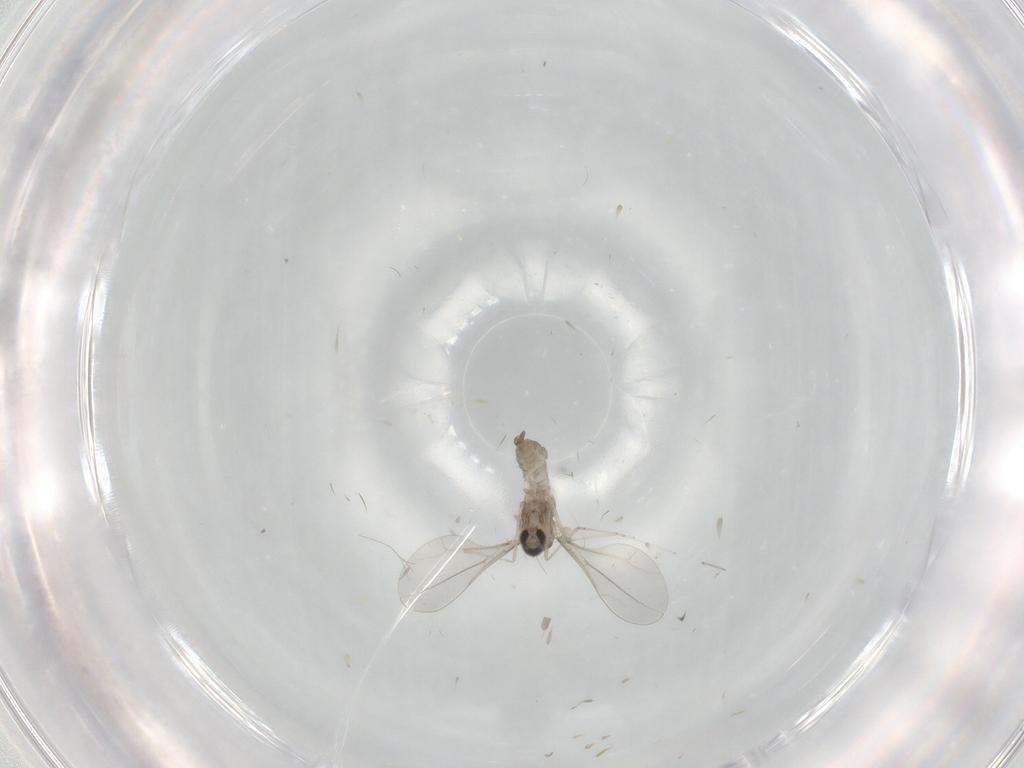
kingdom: Animalia
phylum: Arthropoda
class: Insecta
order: Diptera
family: Cecidomyiidae
